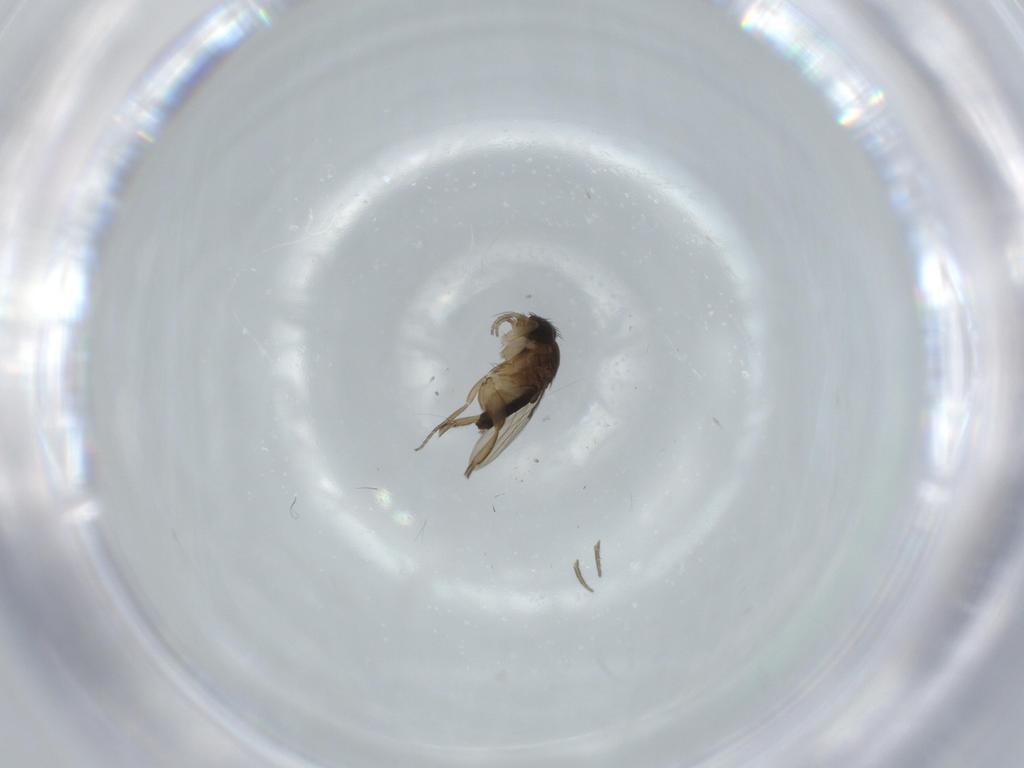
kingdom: Animalia
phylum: Arthropoda
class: Insecta
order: Diptera
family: Phoridae
